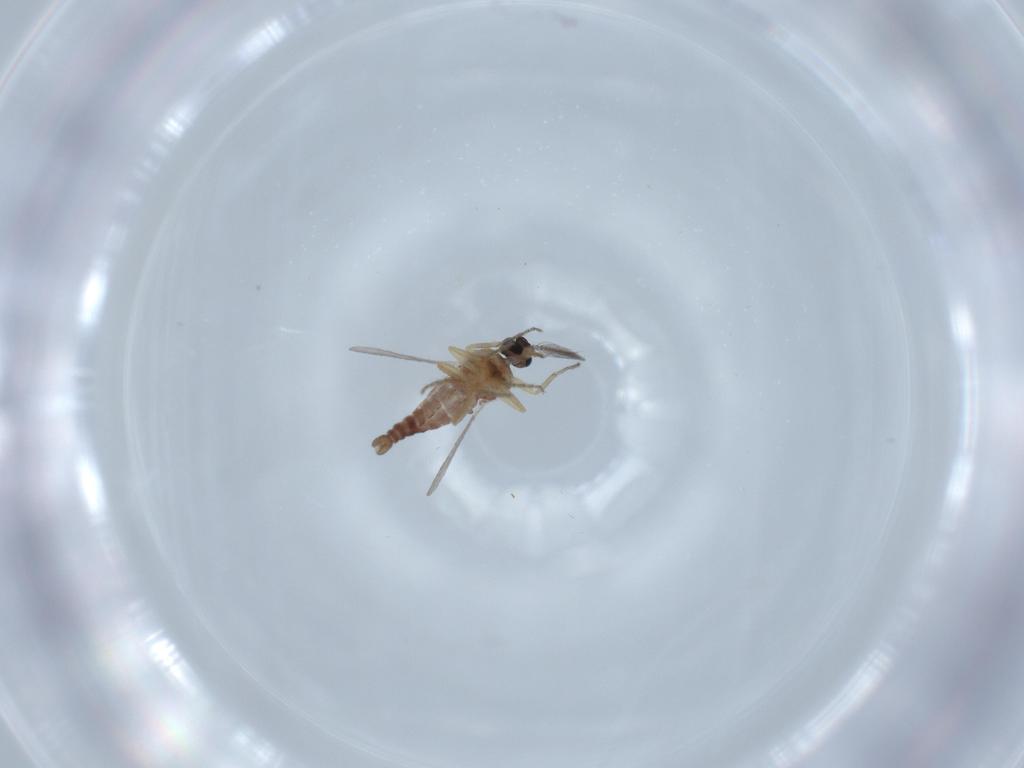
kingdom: Animalia
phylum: Arthropoda
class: Insecta
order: Diptera
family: Ceratopogonidae
